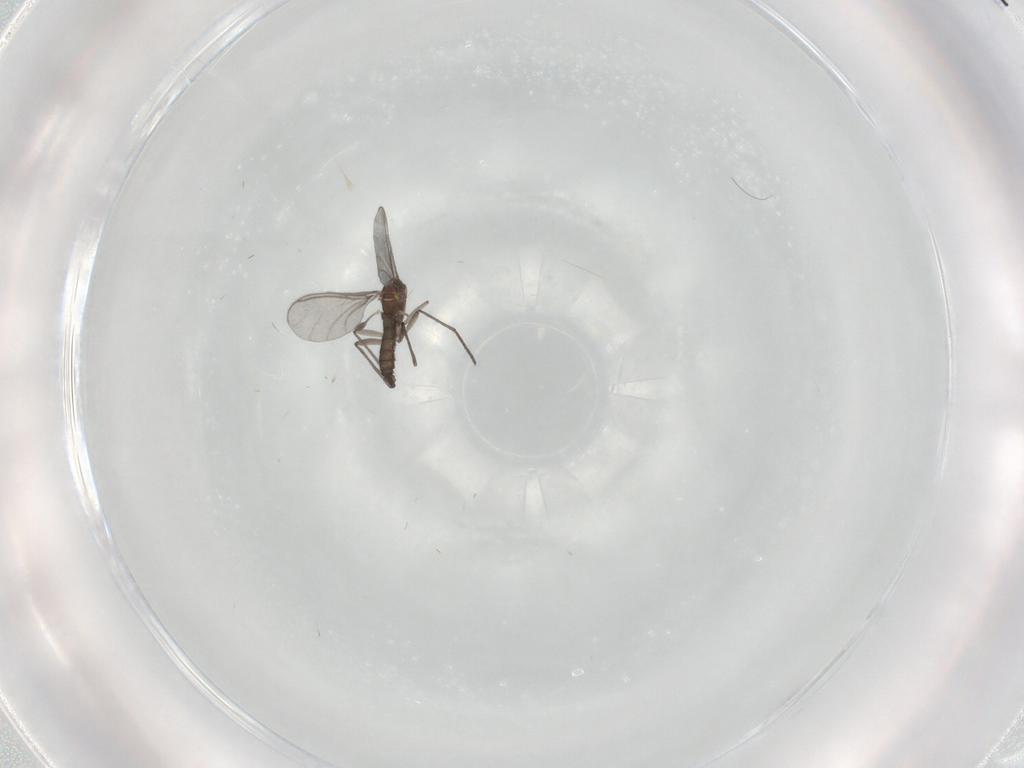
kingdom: Animalia
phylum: Arthropoda
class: Insecta
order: Diptera
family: Sciaridae
